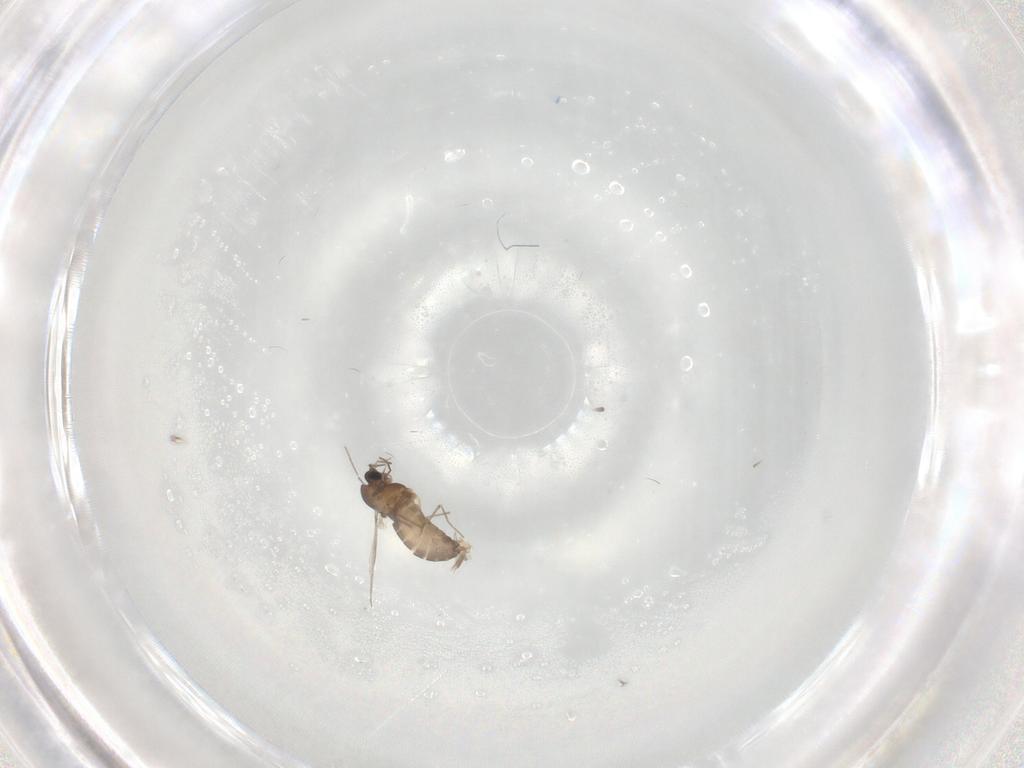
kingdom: Animalia
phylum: Arthropoda
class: Insecta
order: Diptera
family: Chironomidae
